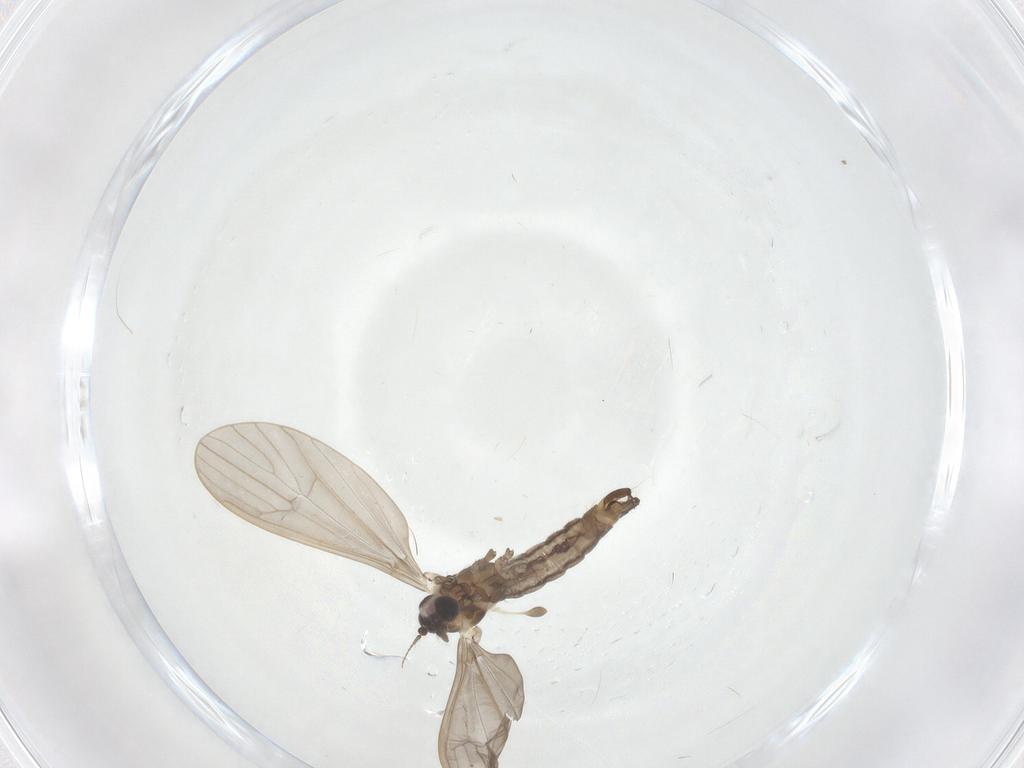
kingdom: Animalia
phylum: Arthropoda
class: Insecta
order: Diptera
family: Limoniidae
